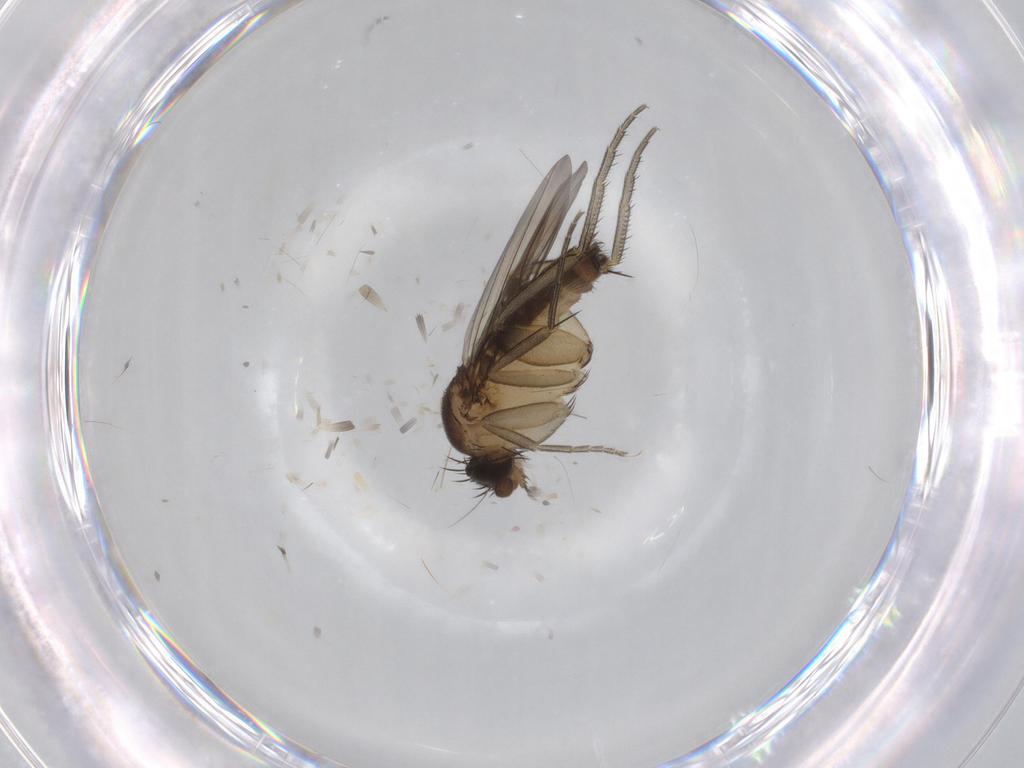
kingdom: Animalia
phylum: Arthropoda
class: Insecta
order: Diptera
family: Phoridae
